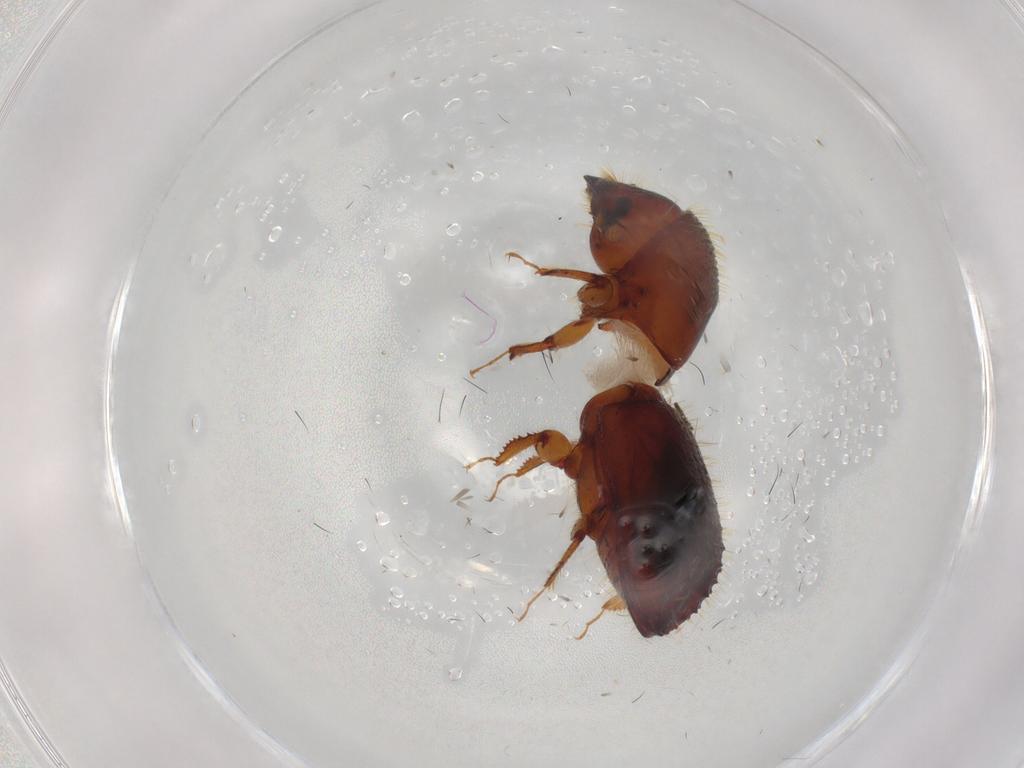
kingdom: Animalia
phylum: Arthropoda
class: Insecta
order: Coleoptera
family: Curculionidae
